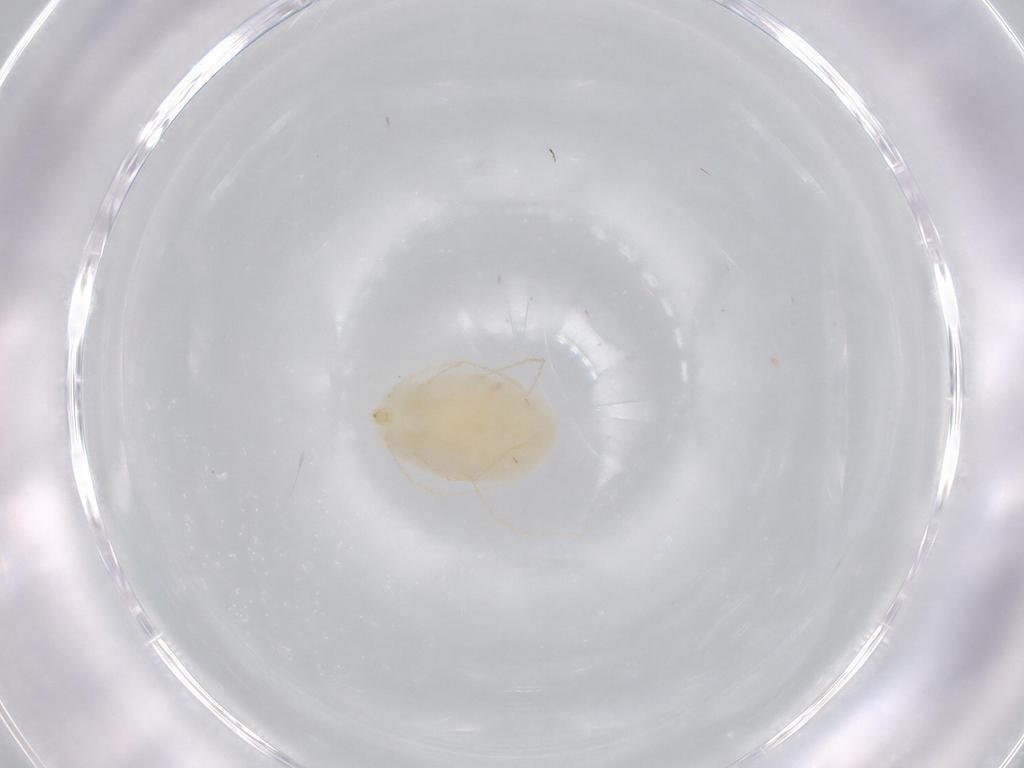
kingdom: Animalia
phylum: Arthropoda
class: Arachnida
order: Trombidiformes
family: Erythraeidae
